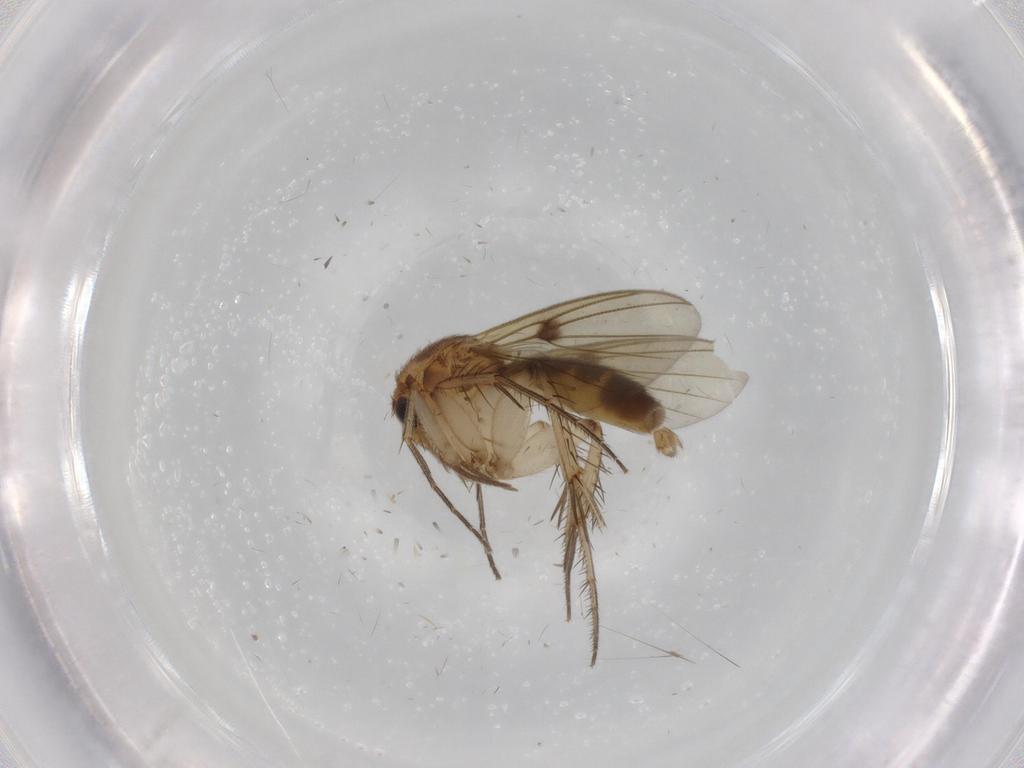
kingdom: Animalia
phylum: Arthropoda
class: Insecta
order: Diptera
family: Mycetophilidae
